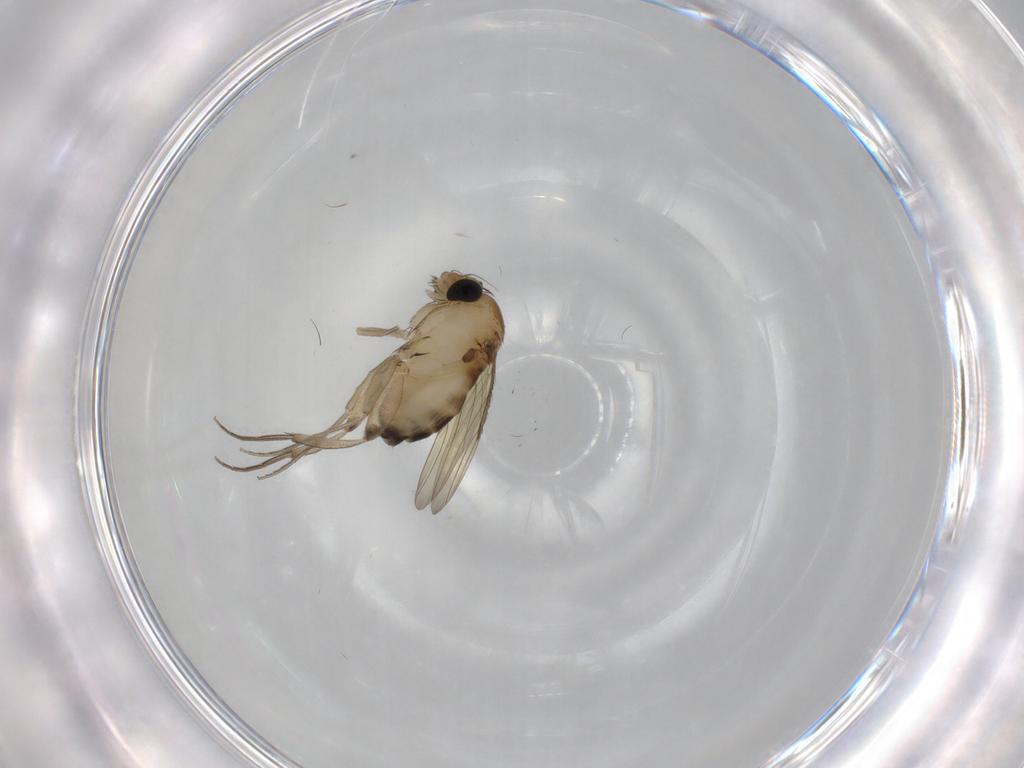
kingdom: Animalia
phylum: Arthropoda
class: Insecta
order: Diptera
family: Phoridae
